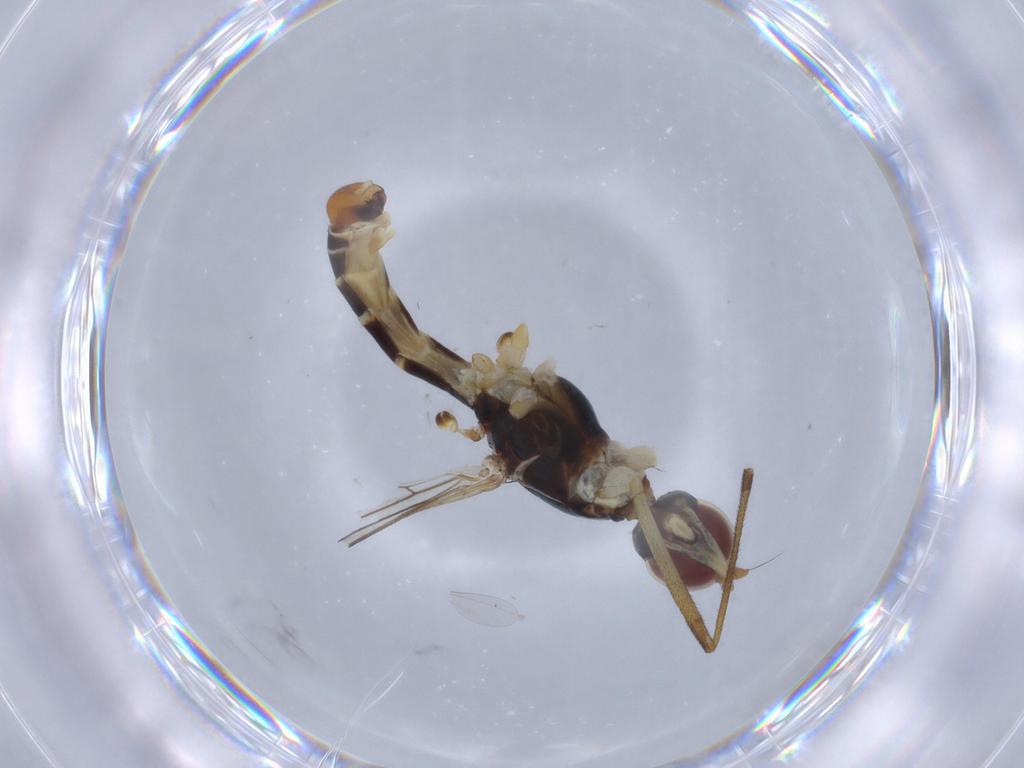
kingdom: Animalia
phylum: Arthropoda
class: Insecta
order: Diptera
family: Micropezidae
